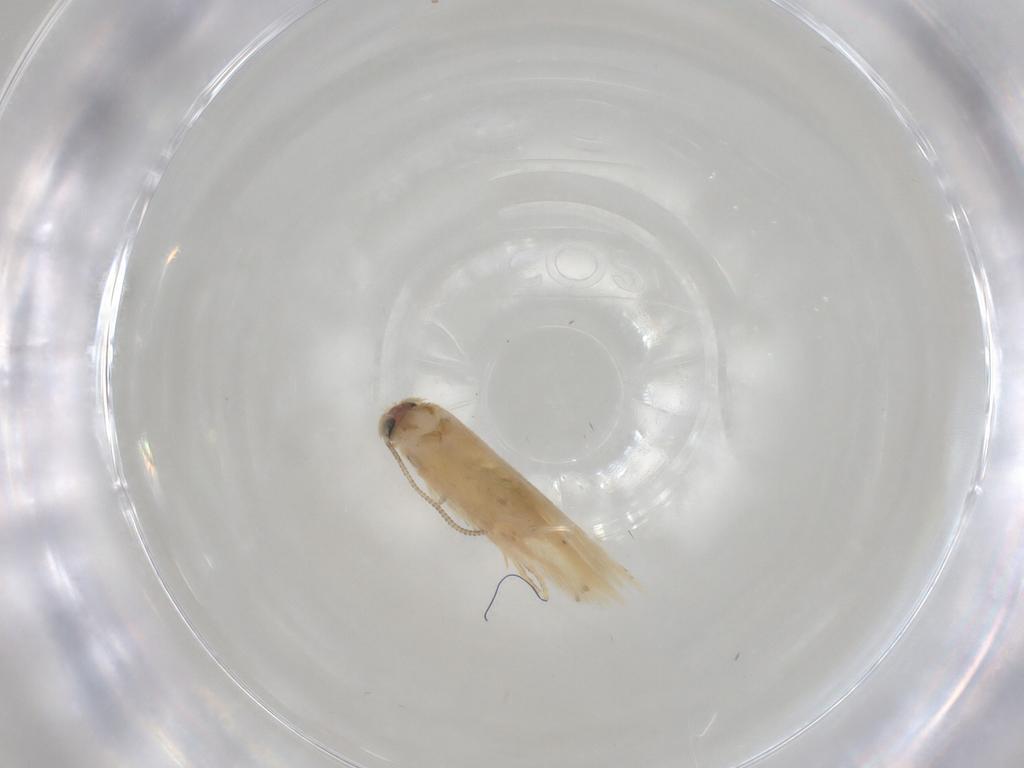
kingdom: Animalia
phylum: Arthropoda
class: Insecta
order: Lepidoptera
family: Nepticulidae
